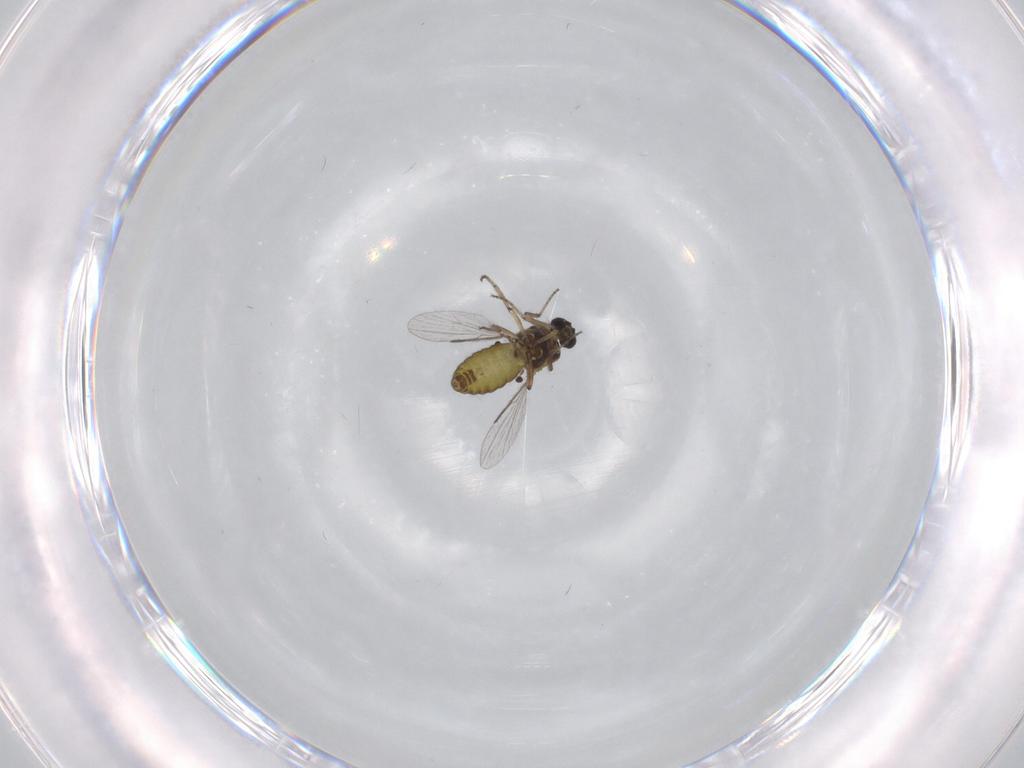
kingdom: Animalia
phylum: Arthropoda
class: Insecta
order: Diptera
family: Ceratopogonidae
